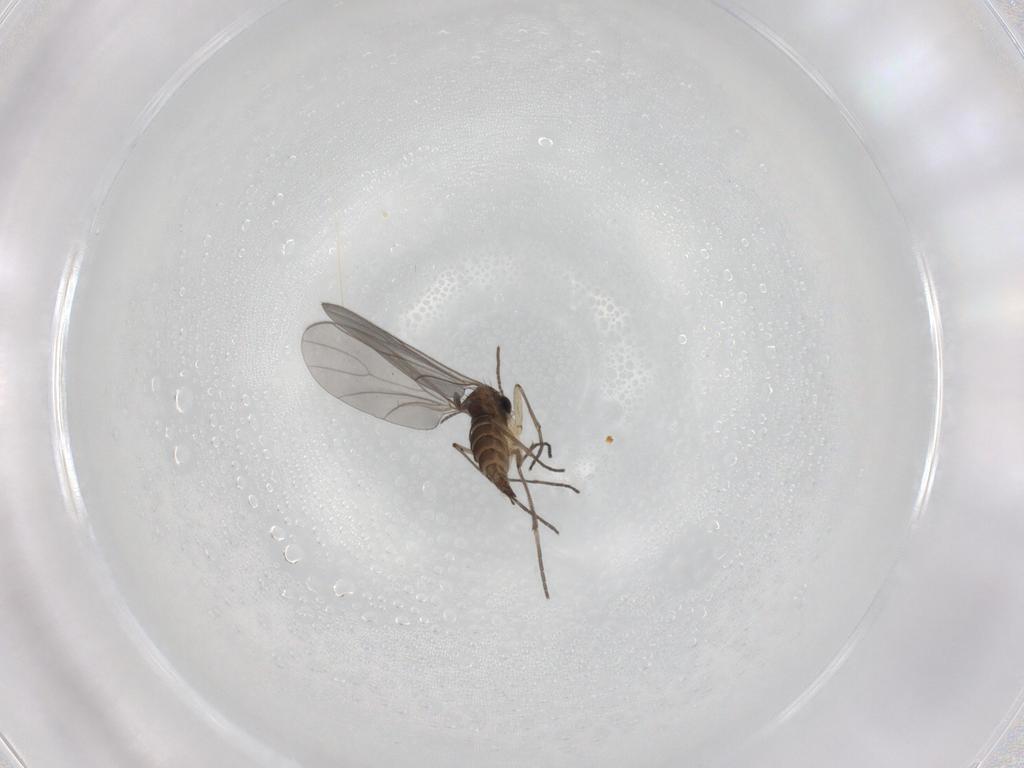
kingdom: Animalia
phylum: Arthropoda
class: Insecta
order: Diptera
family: Sciaridae
